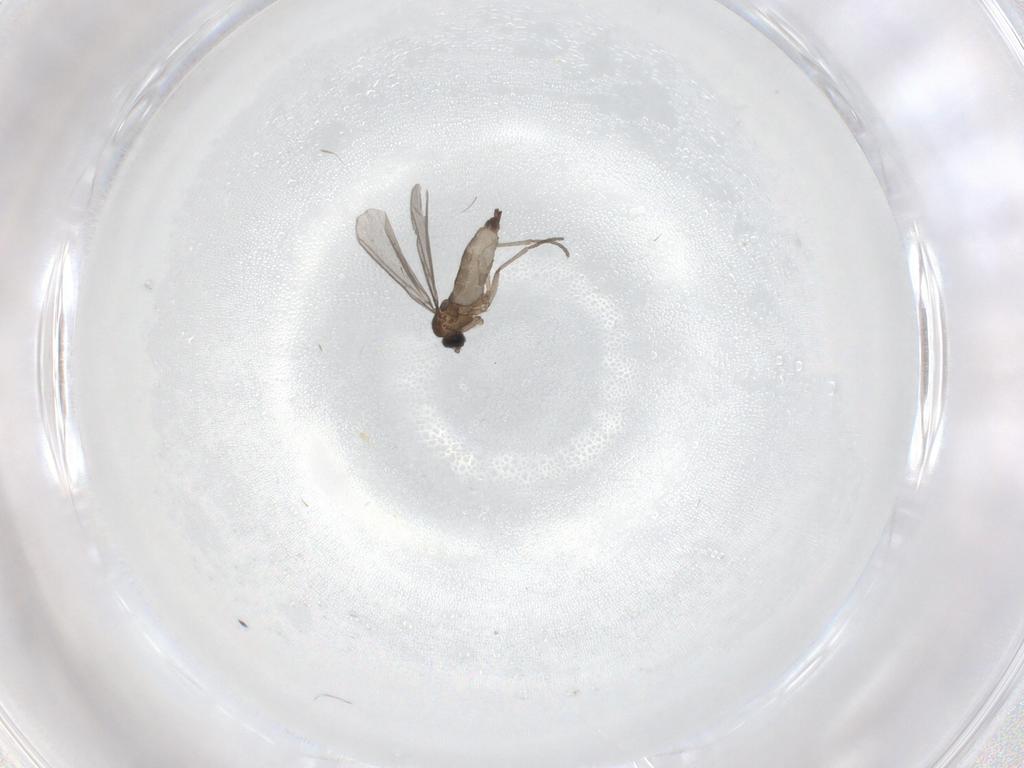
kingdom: Animalia
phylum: Arthropoda
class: Insecta
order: Diptera
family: Sciaridae
